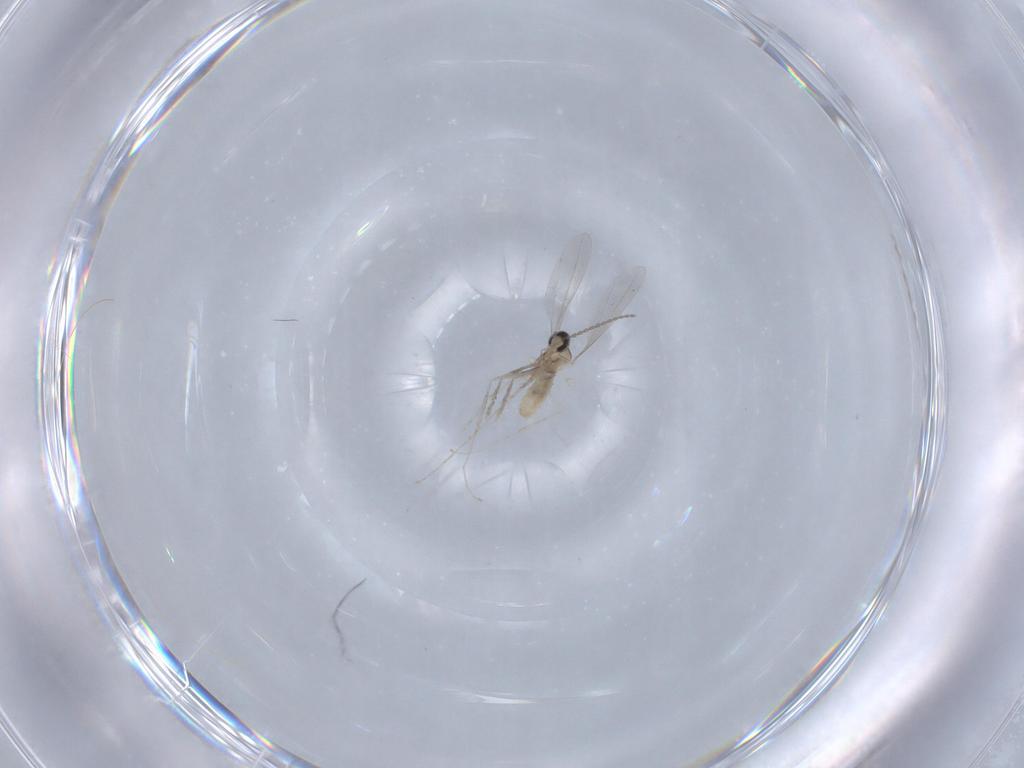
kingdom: Animalia
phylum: Arthropoda
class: Insecta
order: Diptera
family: Cecidomyiidae
